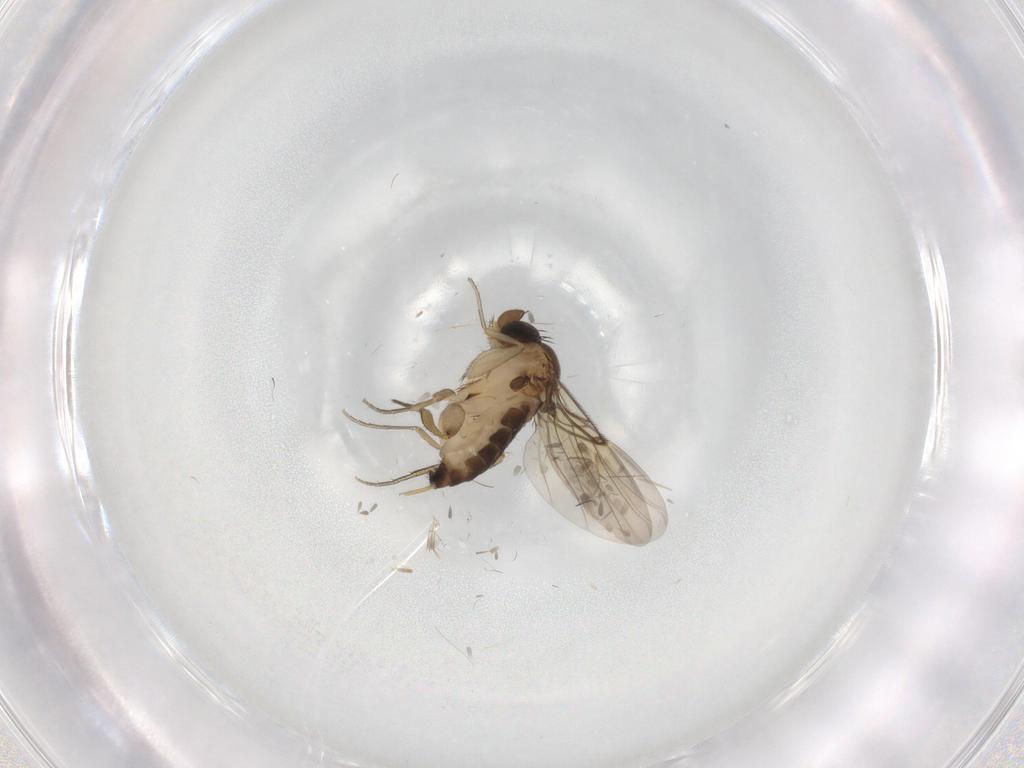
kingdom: Animalia
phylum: Arthropoda
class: Insecta
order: Diptera
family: Phoridae
